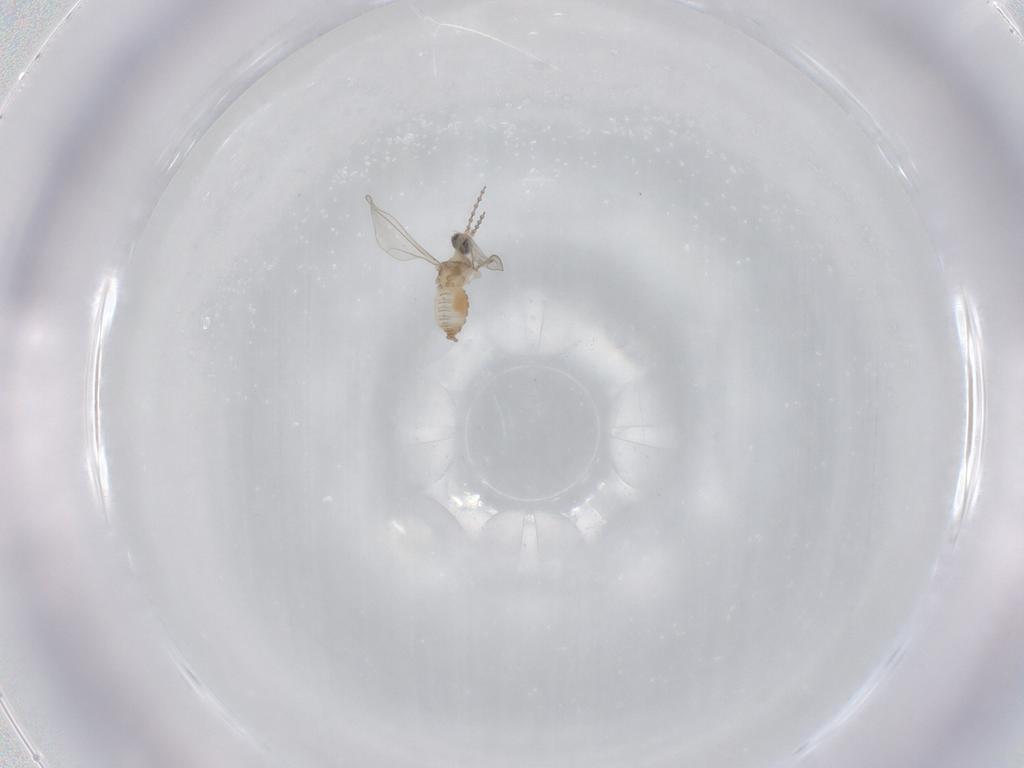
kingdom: Animalia
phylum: Arthropoda
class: Insecta
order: Diptera
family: Cecidomyiidae
